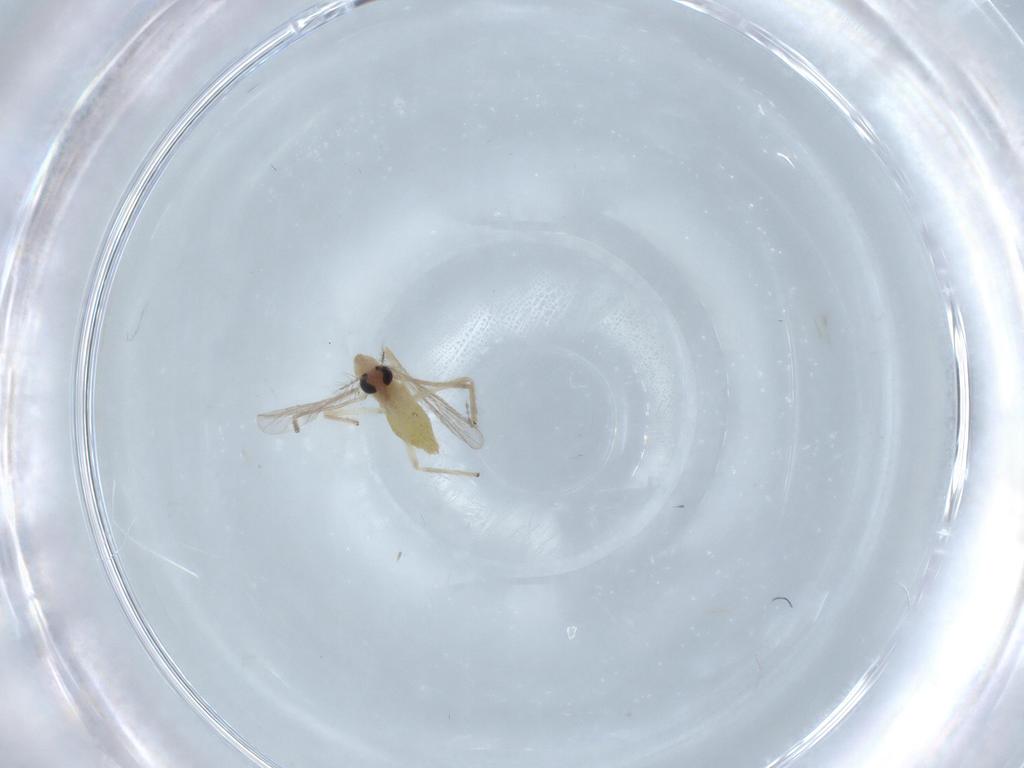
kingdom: Animalia
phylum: Arthropoda
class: Insecta
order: Diptera
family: Chironomidae
